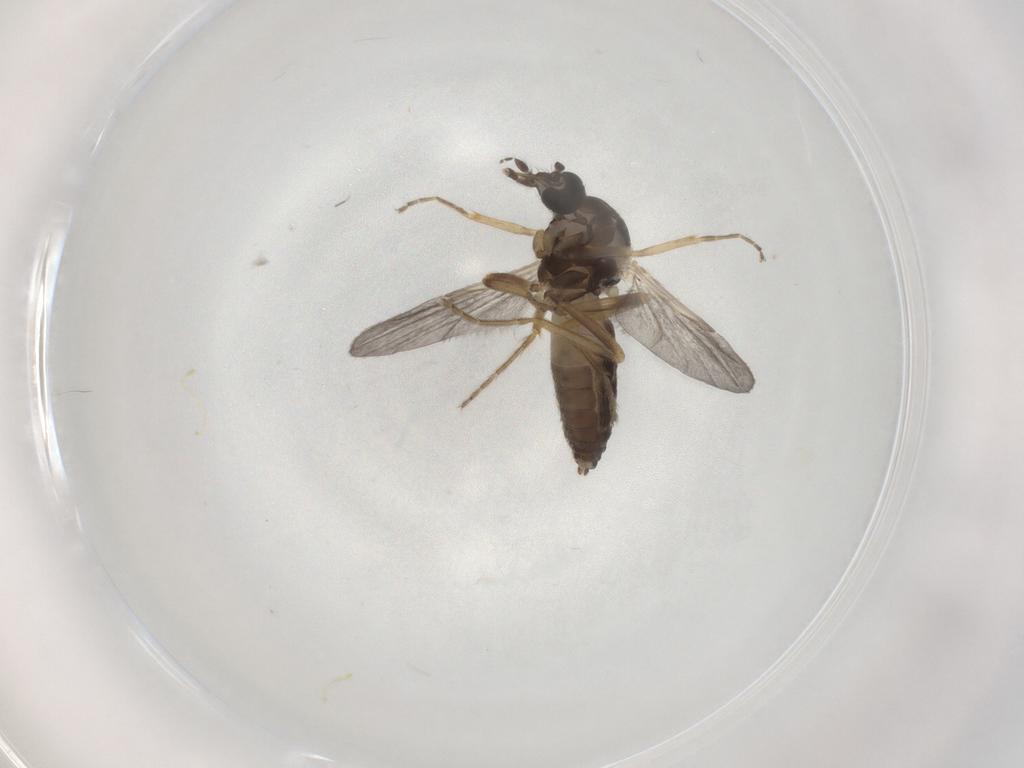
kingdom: Animalia
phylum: Arthropoda
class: Insecta
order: Diptera
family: Ceratopogonidae
